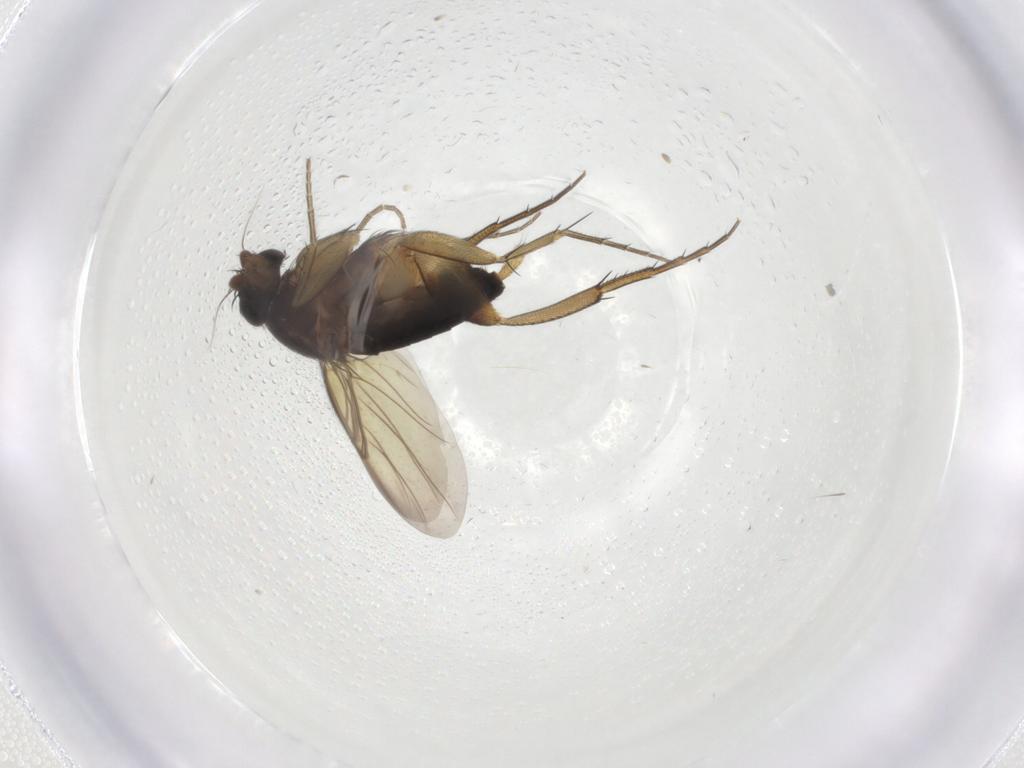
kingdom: Animalia
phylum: Arthropoda
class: Insecta
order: Diptera
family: Phoridae
